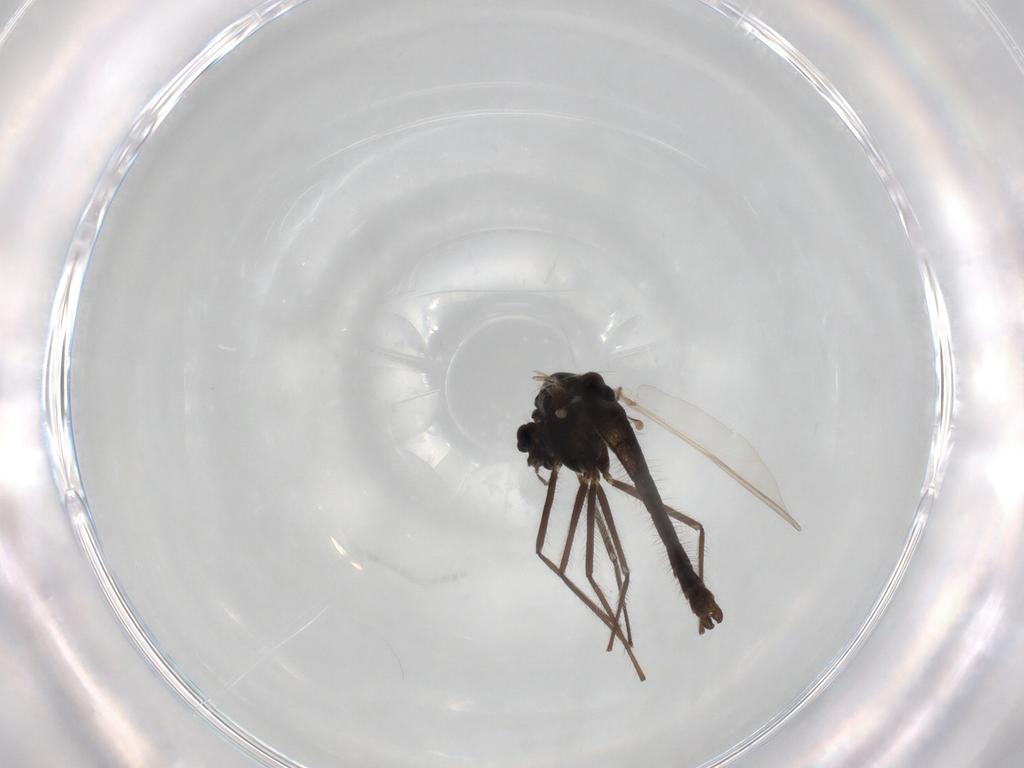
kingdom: Animalia
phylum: Arthropoda
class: Insecta
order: Diptera
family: Chironomidae
